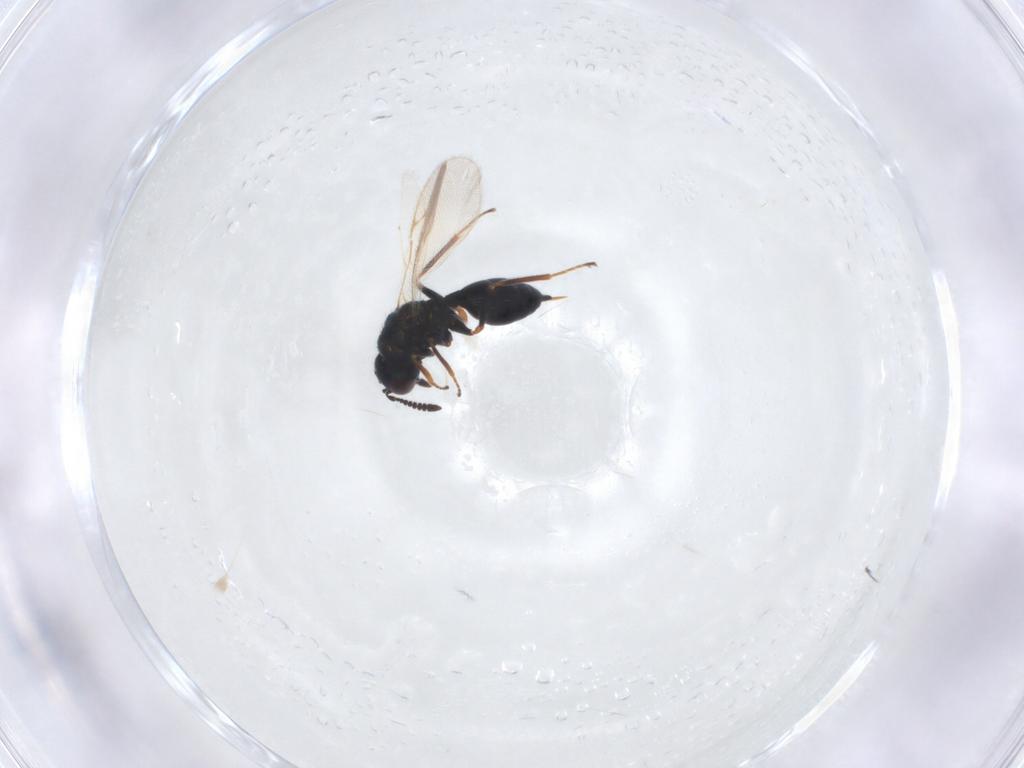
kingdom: Animalia
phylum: Arthropoda
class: Insecta
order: Hymenoptera
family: Chalcidoidea_incertae_sedis
